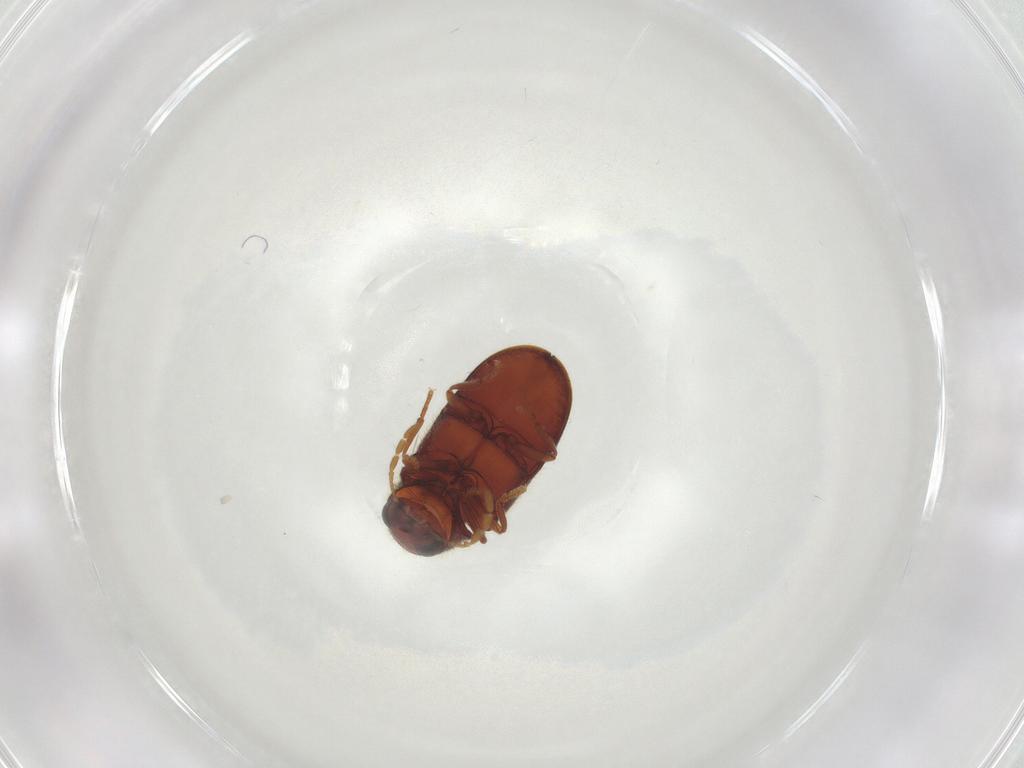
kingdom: Animalia
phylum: Arthropoda
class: Insecta
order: Coleoptera
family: Ptinidae
